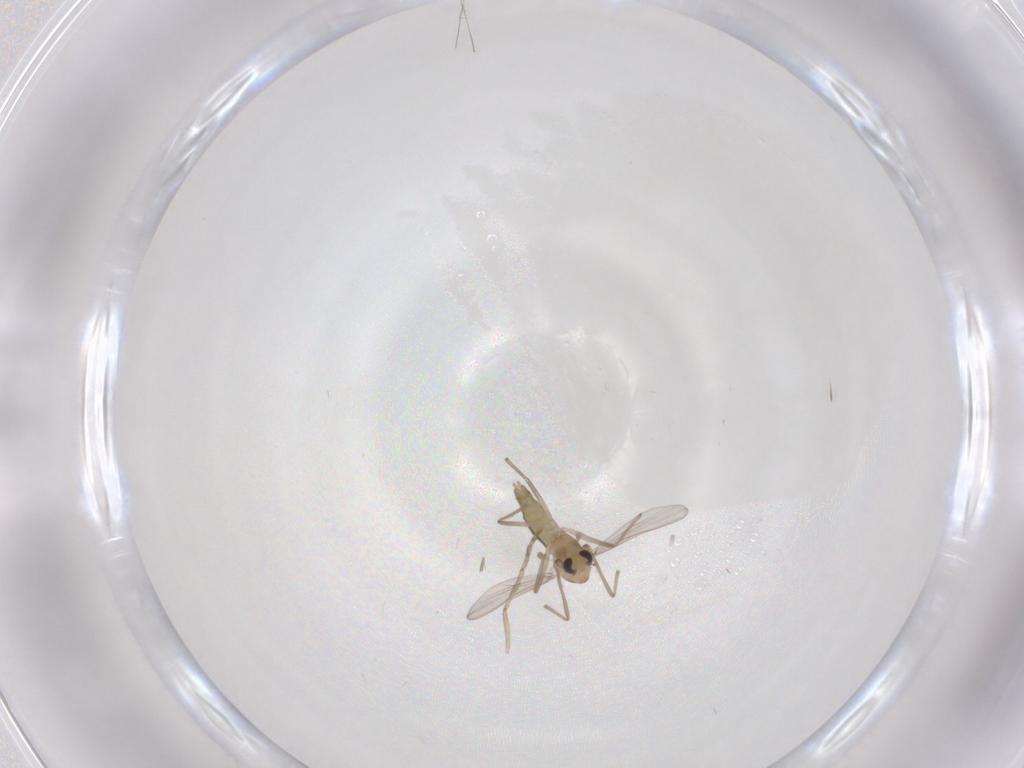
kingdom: Animalia
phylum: Arthropoda
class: Insecta
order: Diptera
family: Chironomidae
